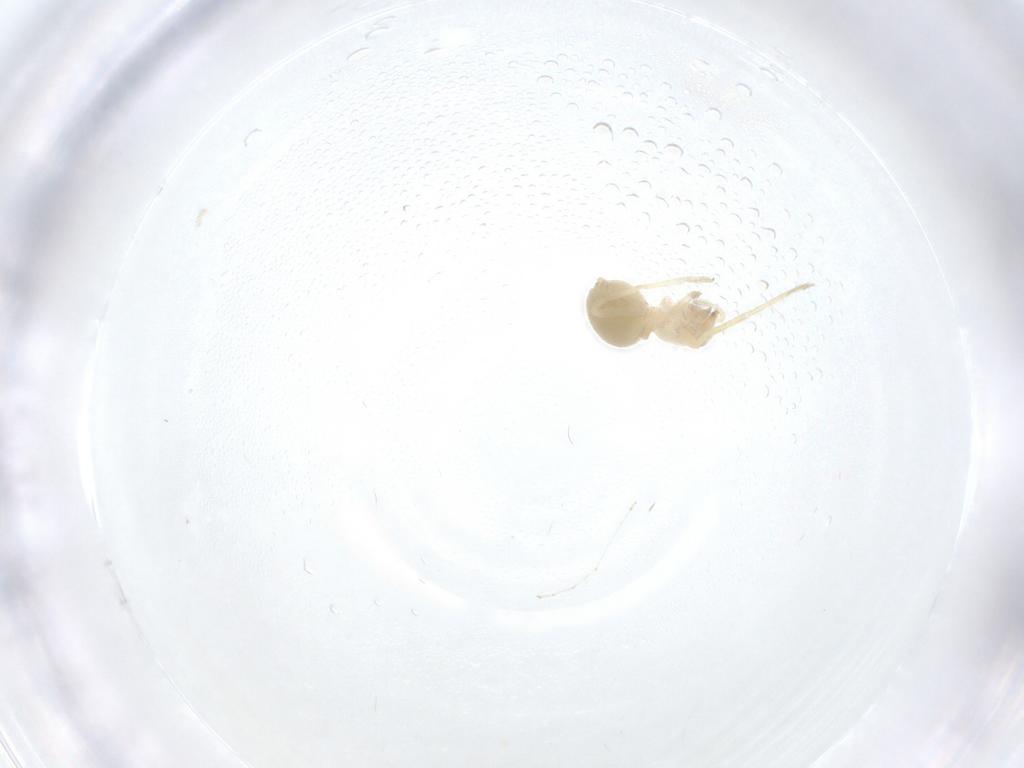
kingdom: Animalia
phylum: Arthropoda
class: Arachnida
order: Araneae
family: Oonopidae
